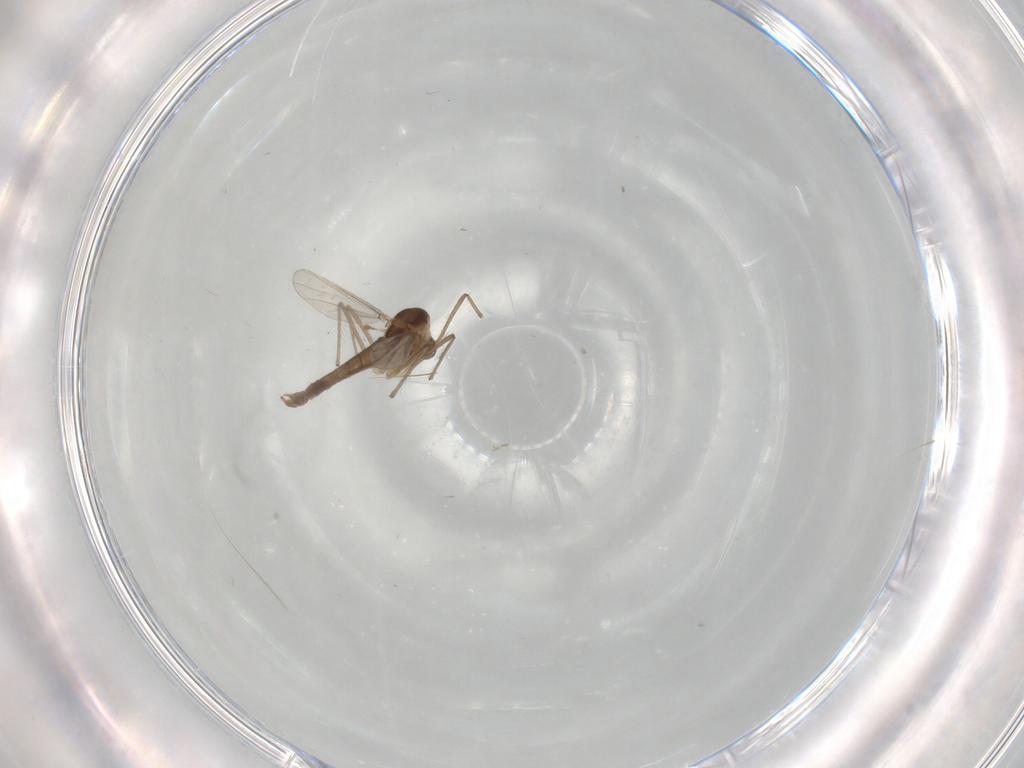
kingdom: Animalia
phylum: Arthropoda
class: Insecta
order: Diptera
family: Chironomidae
